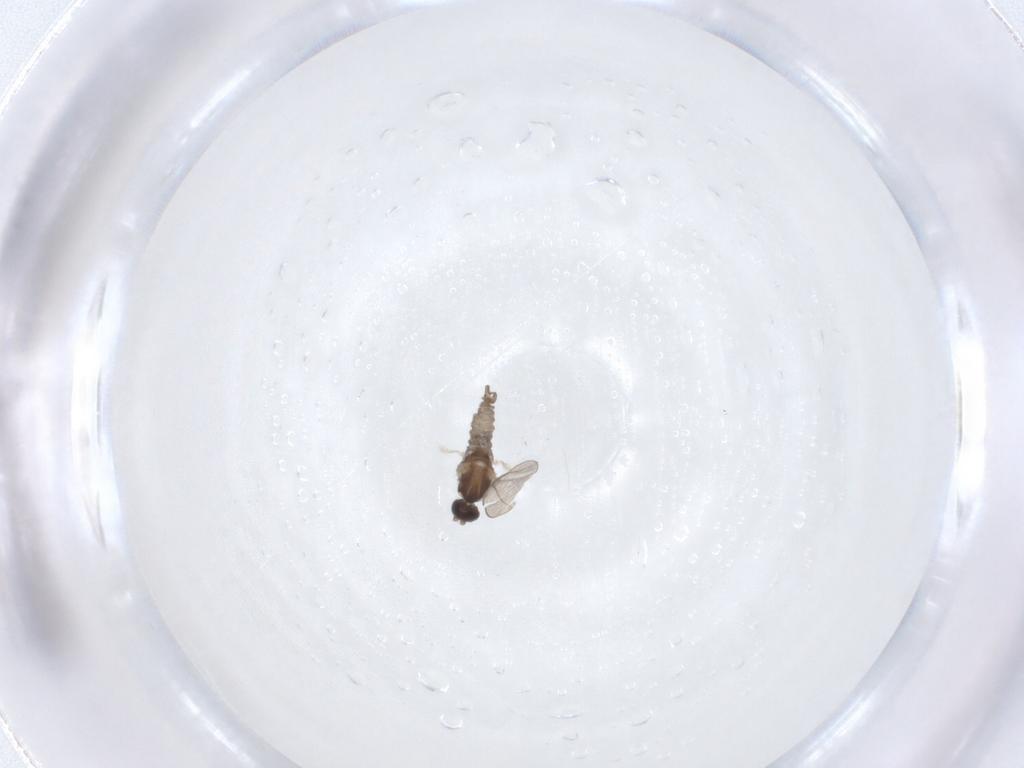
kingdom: Animalia
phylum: Arthropoda
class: Insecta
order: Diptera
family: Cecidomyiidae
